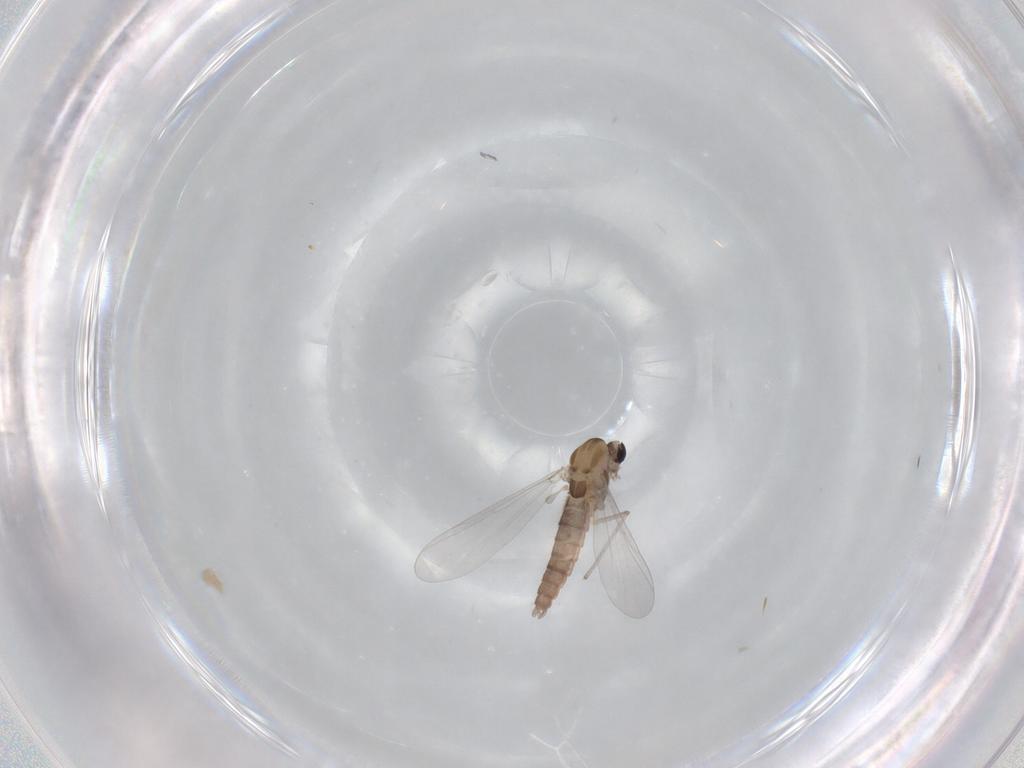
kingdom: Animalia
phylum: Arthropoda
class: Insecta
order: Diptera
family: Chironomidae
